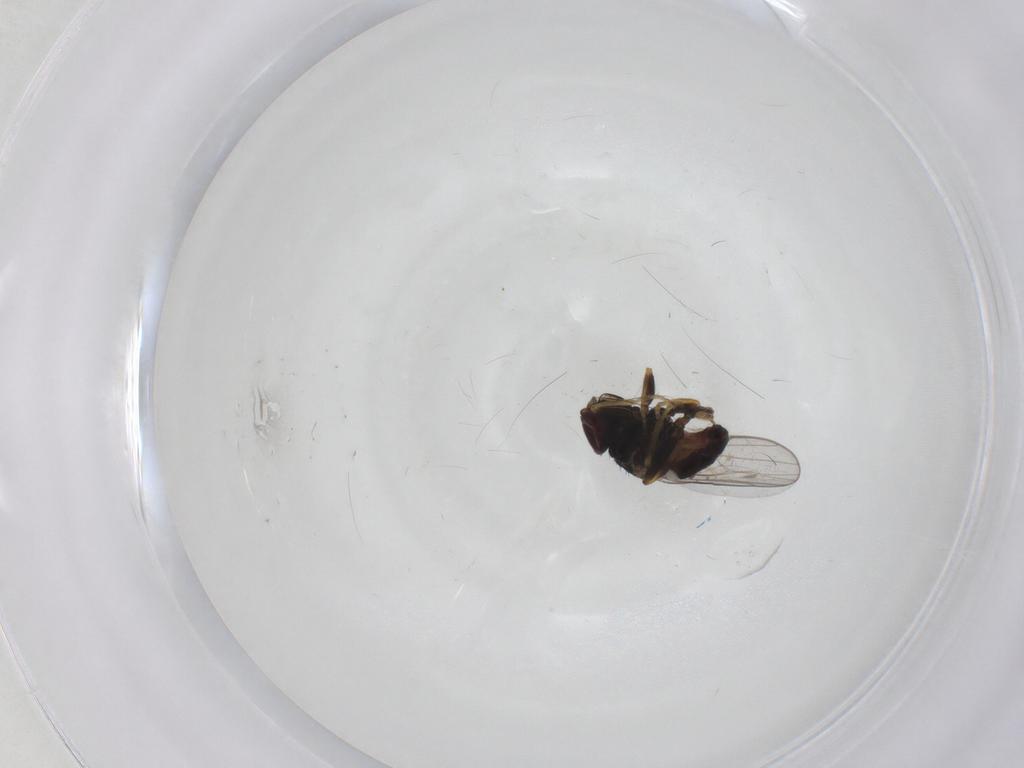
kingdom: Animalia
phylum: Arthropoda
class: Insecta
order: Diptera
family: Chloropidae
